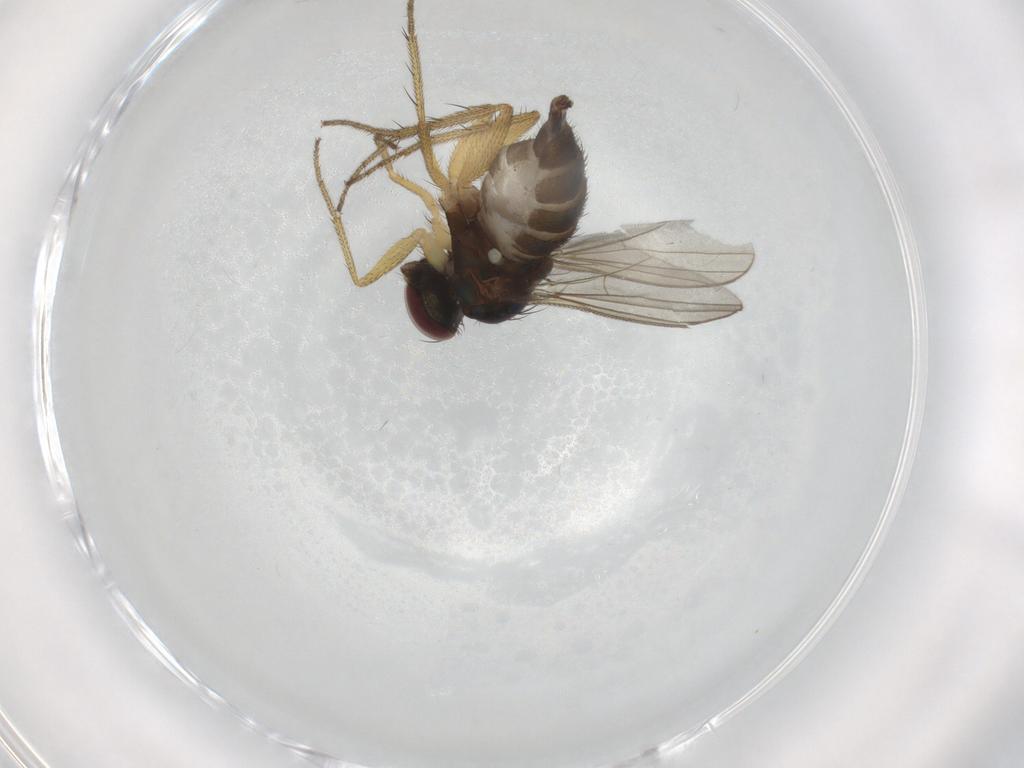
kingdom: Animalia
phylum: Arthropoda
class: Insecta
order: Diptera
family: Dolichopodidae
